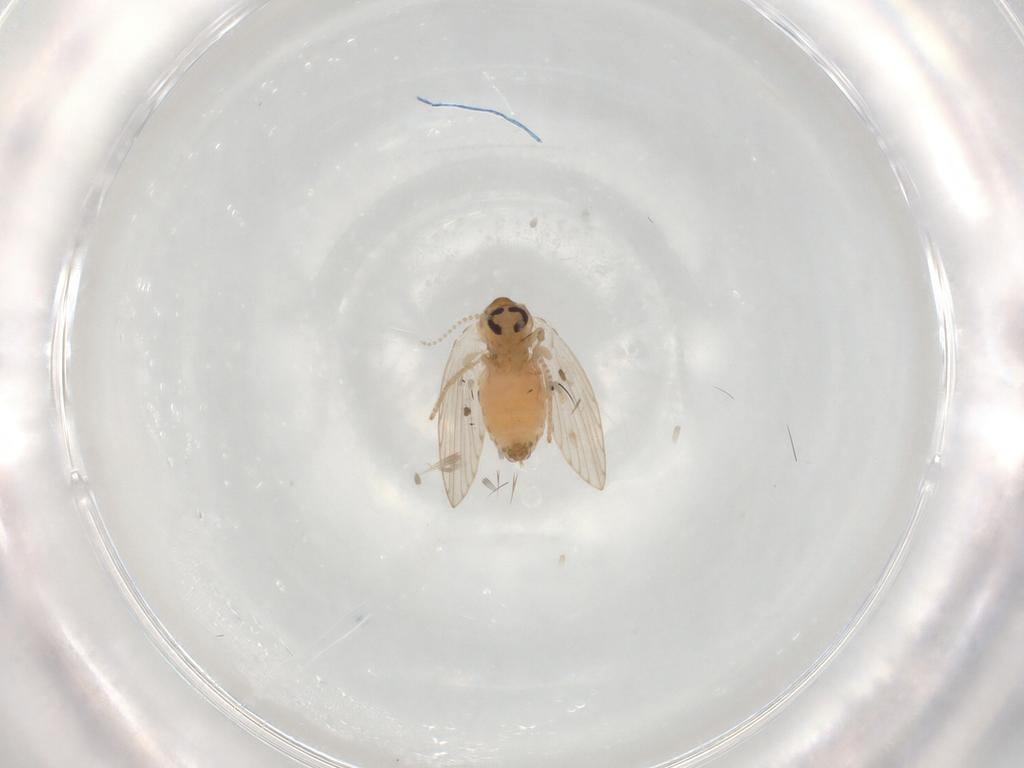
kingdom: Animalia
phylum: Arthropoda
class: Insecta
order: Diptera
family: Psychodidae
